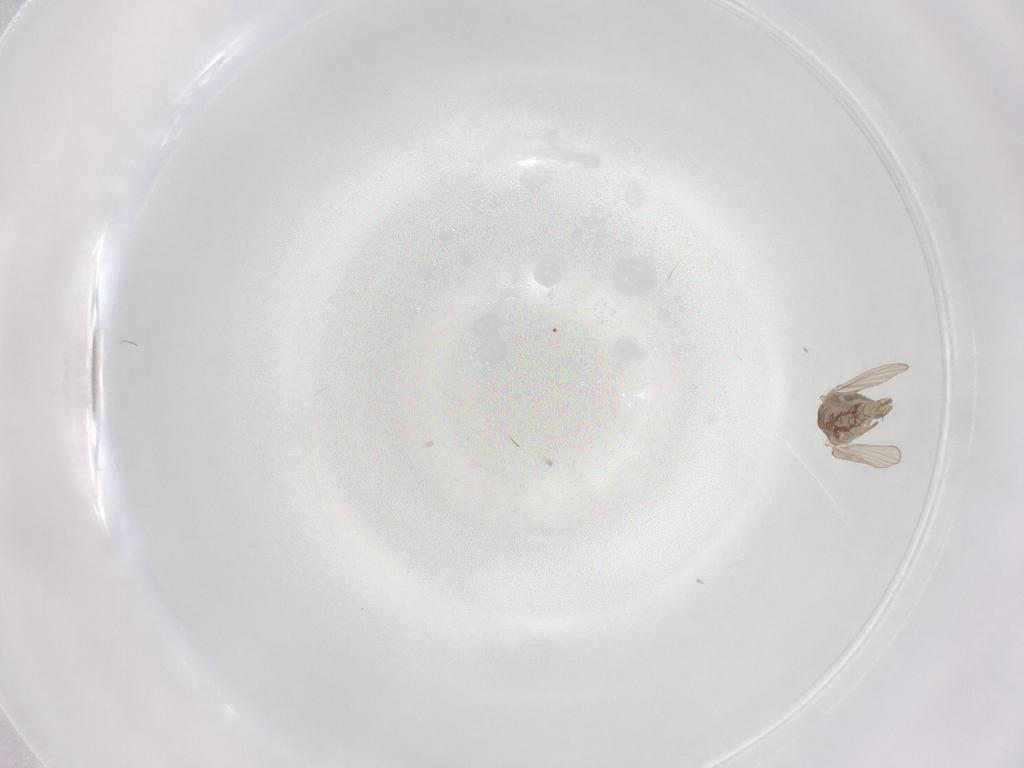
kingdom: Animalia
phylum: Arthropoda
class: Insecta
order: Diptera
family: Psychodidae
